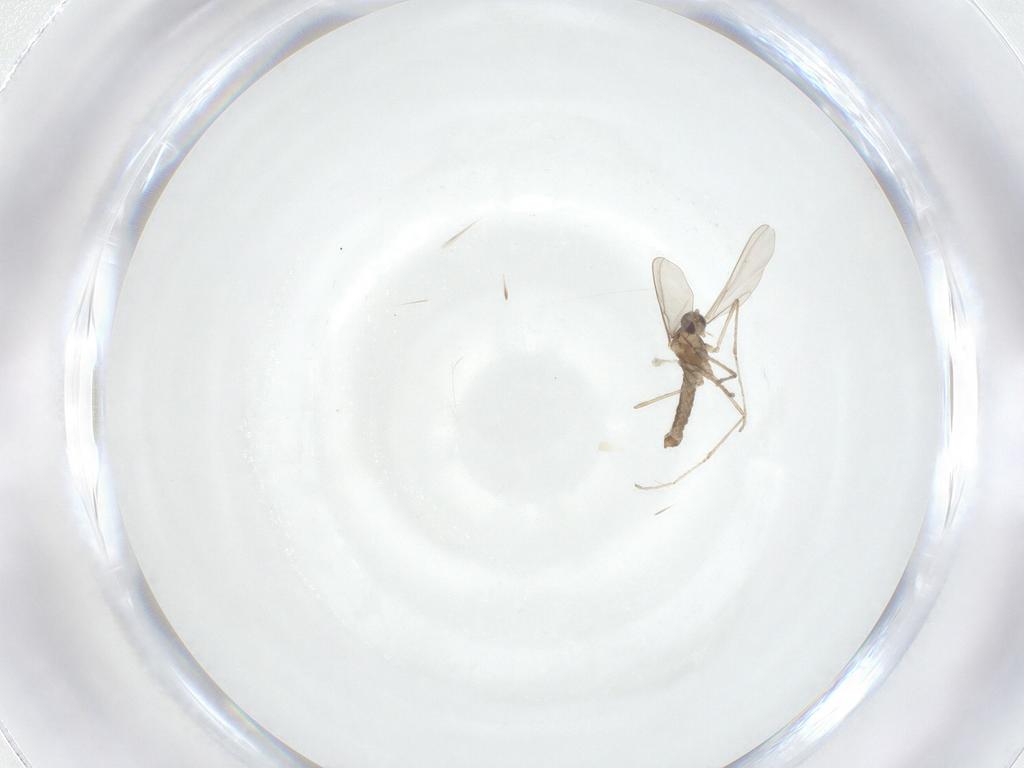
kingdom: Animalia
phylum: Arthropoda
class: Insecta
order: Diptera
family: Cecidomyiidae
